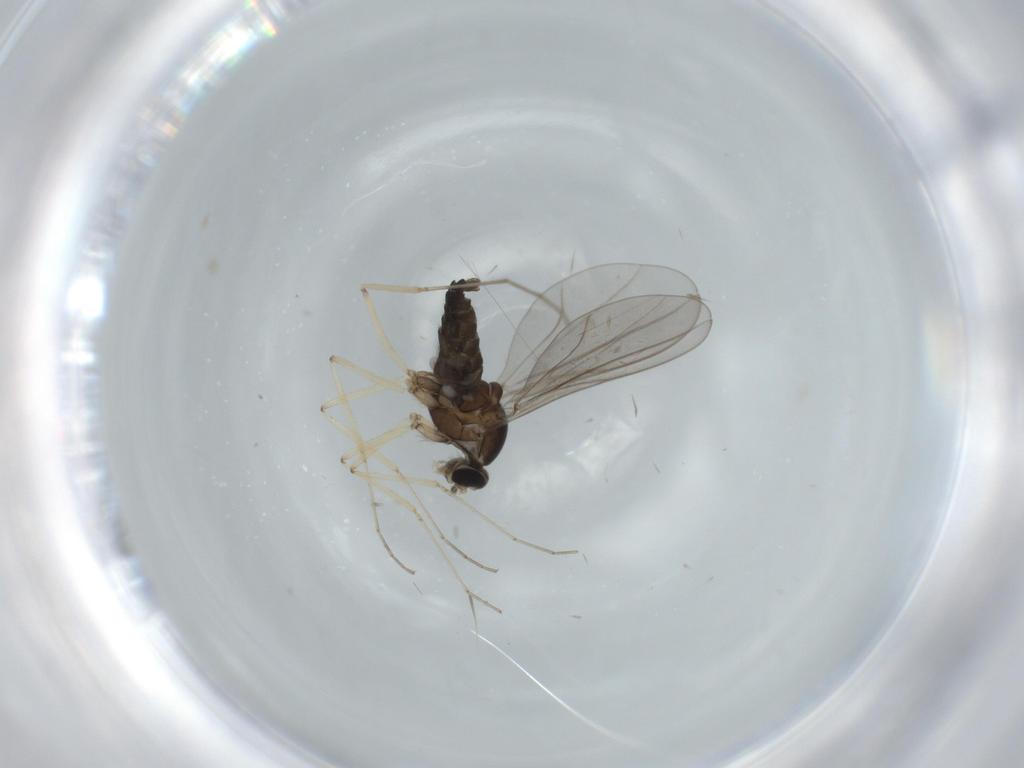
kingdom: Animalia
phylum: Arthropoda
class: Insecta
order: Diptera
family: Cecidomyiidae
